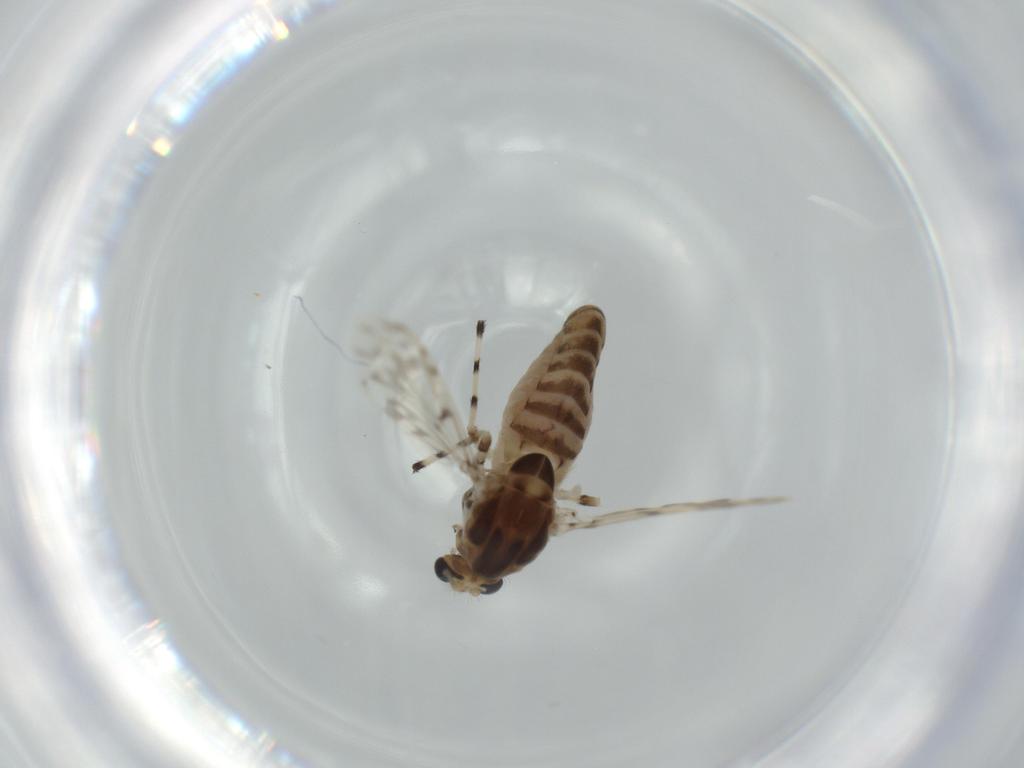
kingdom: Animalia
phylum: Arthropoda
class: Insecta
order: Diptera
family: Chironomidae
